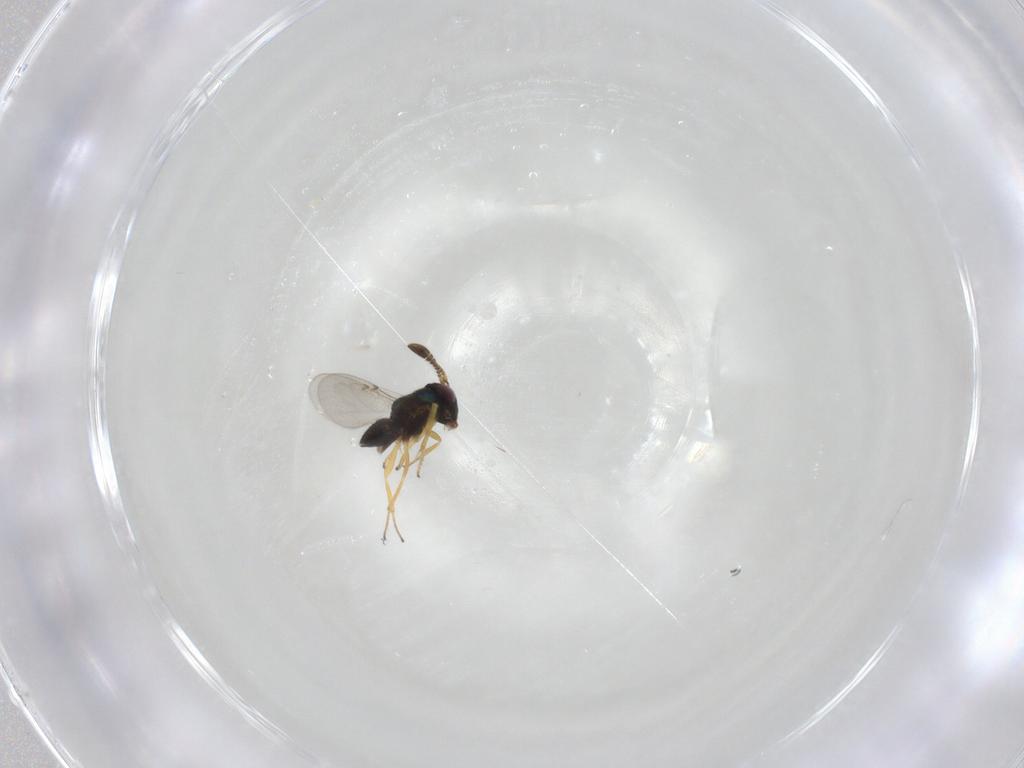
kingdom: Animalia
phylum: Arthropoda
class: Insecta
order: Hymenoptera
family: Encyrtidae
